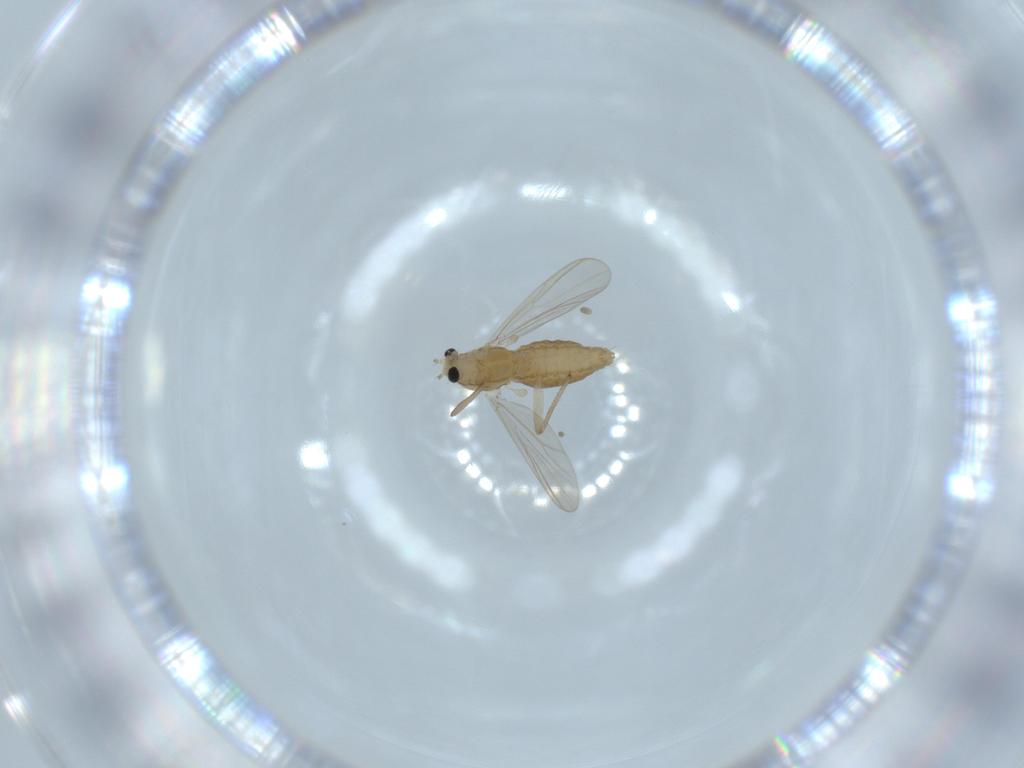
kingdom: Animalia
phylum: Arthropoda
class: Insecta
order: Diptera
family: Chironomidae
